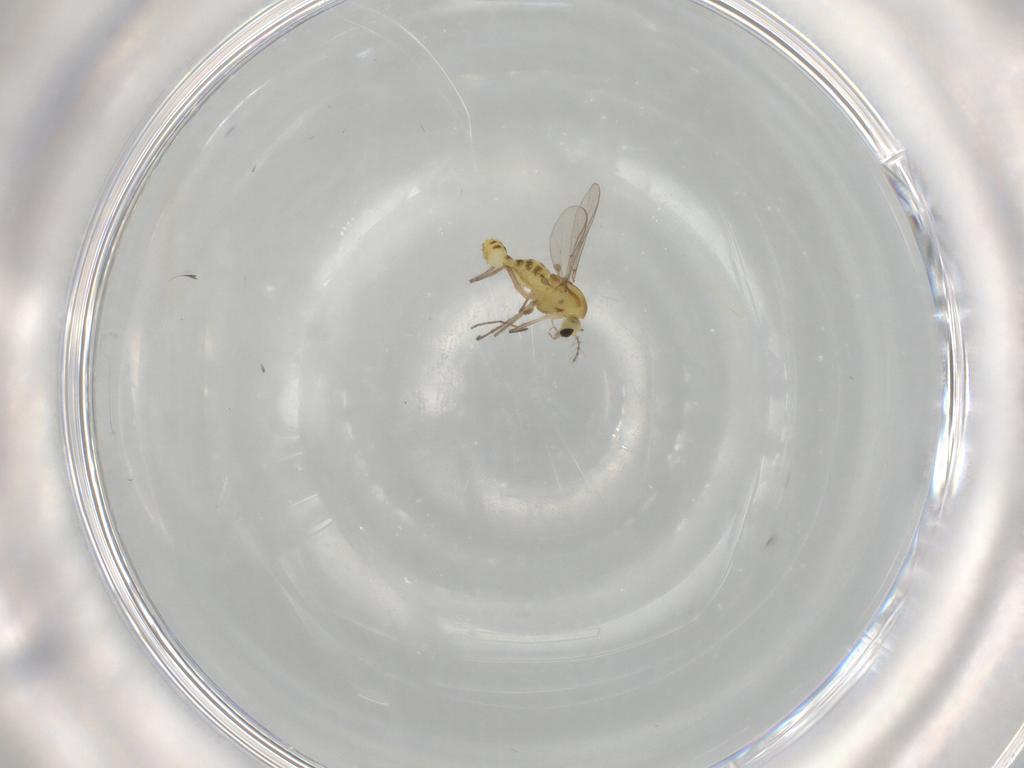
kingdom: Animalia
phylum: Arthropoda
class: Insecta
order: Diptera
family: Chironomidae
